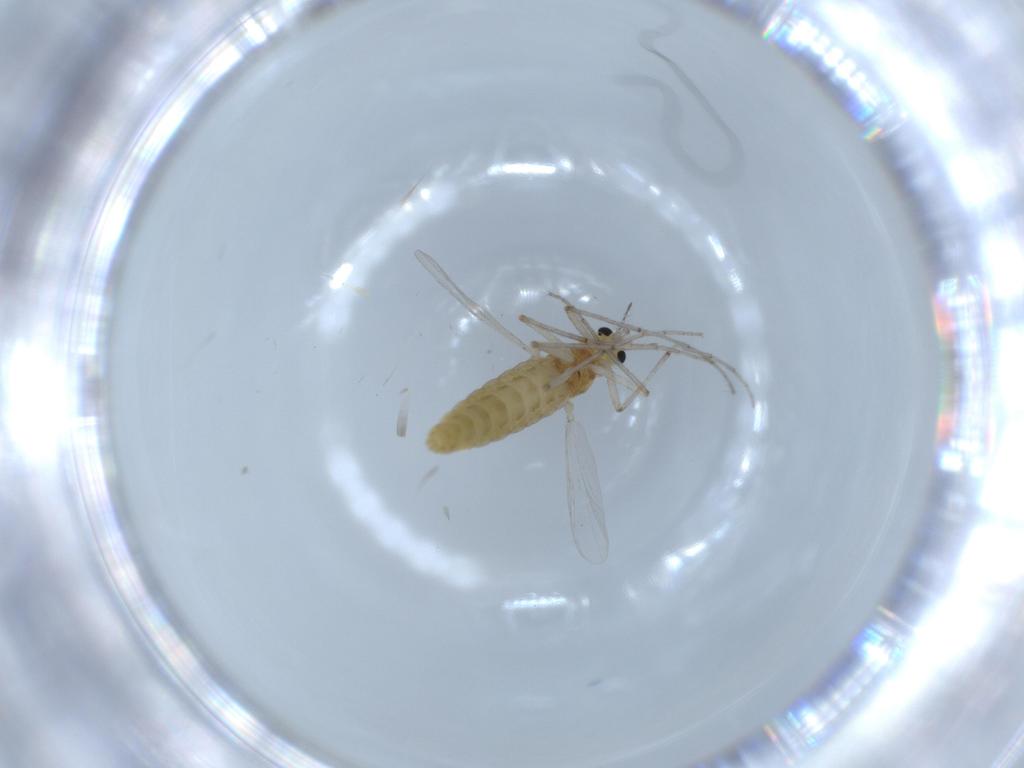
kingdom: Animalia
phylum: Arthropoda
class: Insecta
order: Diptera
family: Chironomidae
